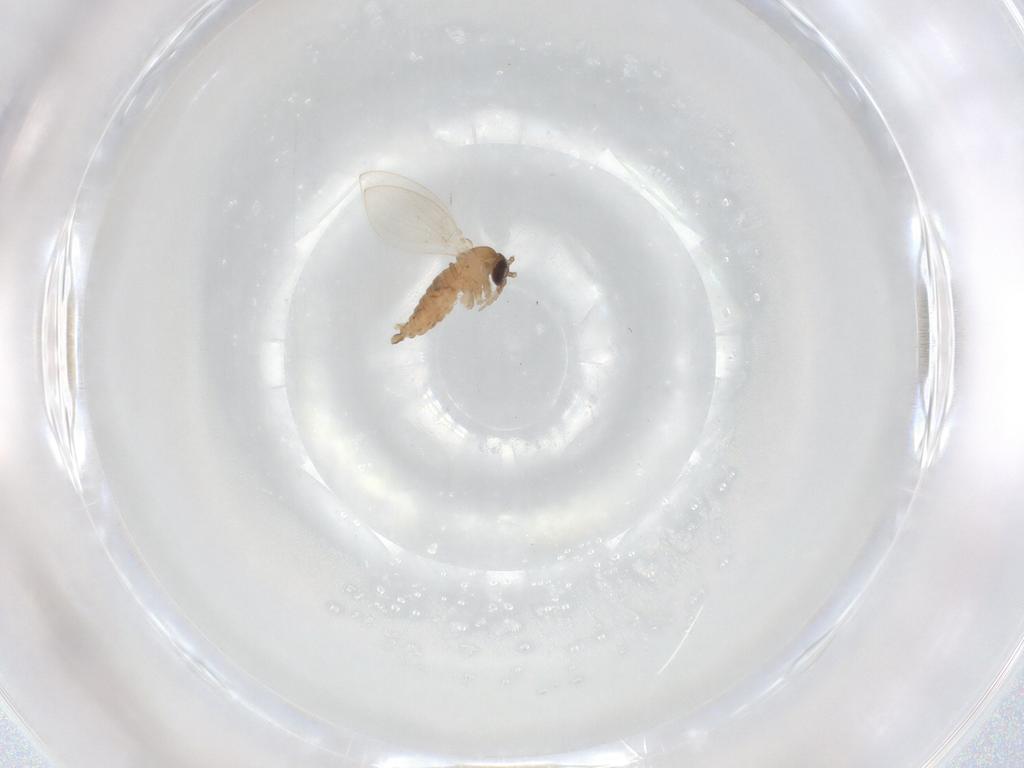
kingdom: Animalia
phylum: Arthropoda
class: Insecta
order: Diptera
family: Psychodidae
